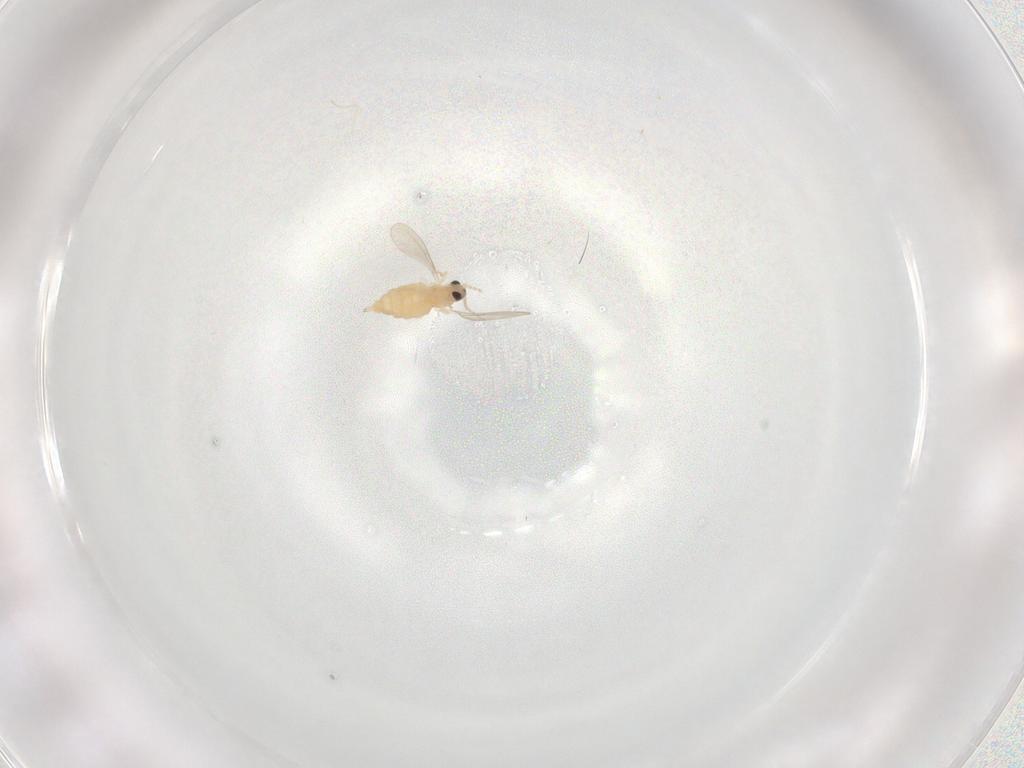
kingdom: Animalia
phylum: Arthropoda
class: Insecta
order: Diptera
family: Cecidomyiidae
